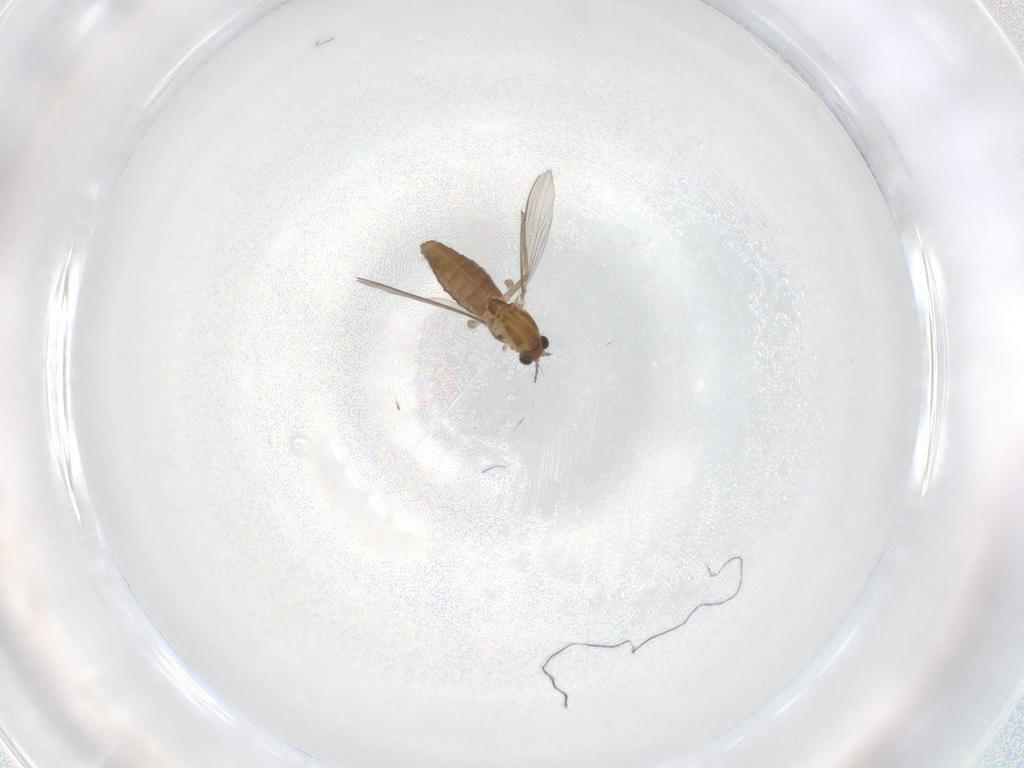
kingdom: Animalia
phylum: Arthropoda
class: Insecta
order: Diptera
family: Chironomidae
